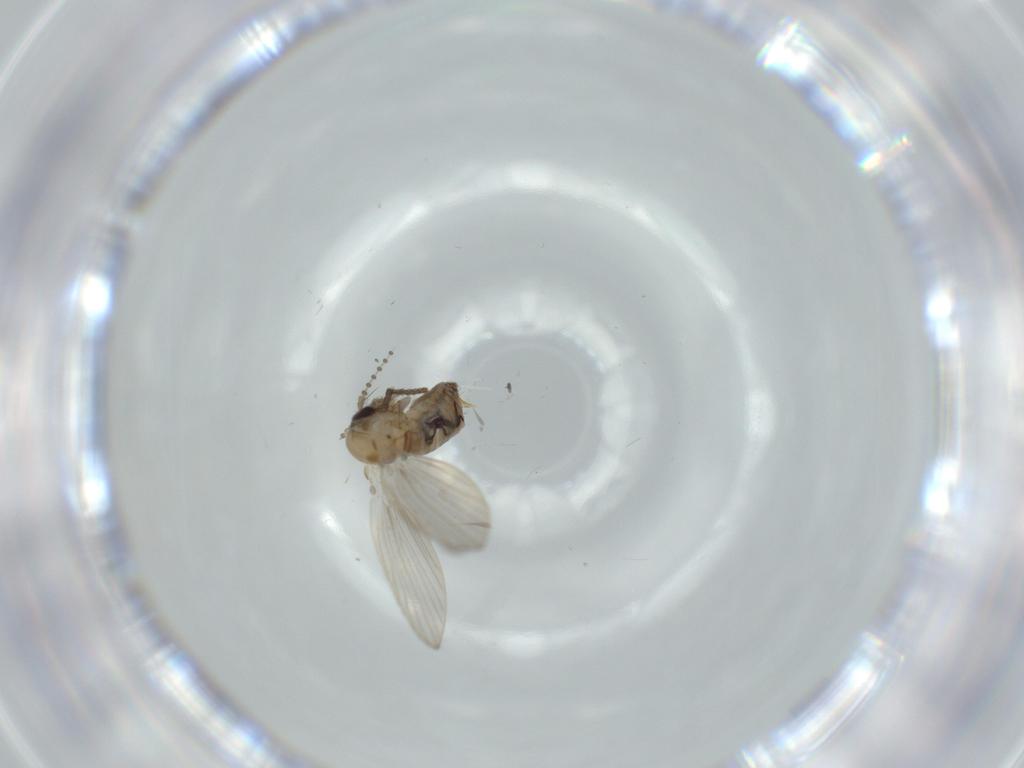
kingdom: Animalia
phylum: Arthropoda
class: Insecta
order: Diptera
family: Psychodidae
